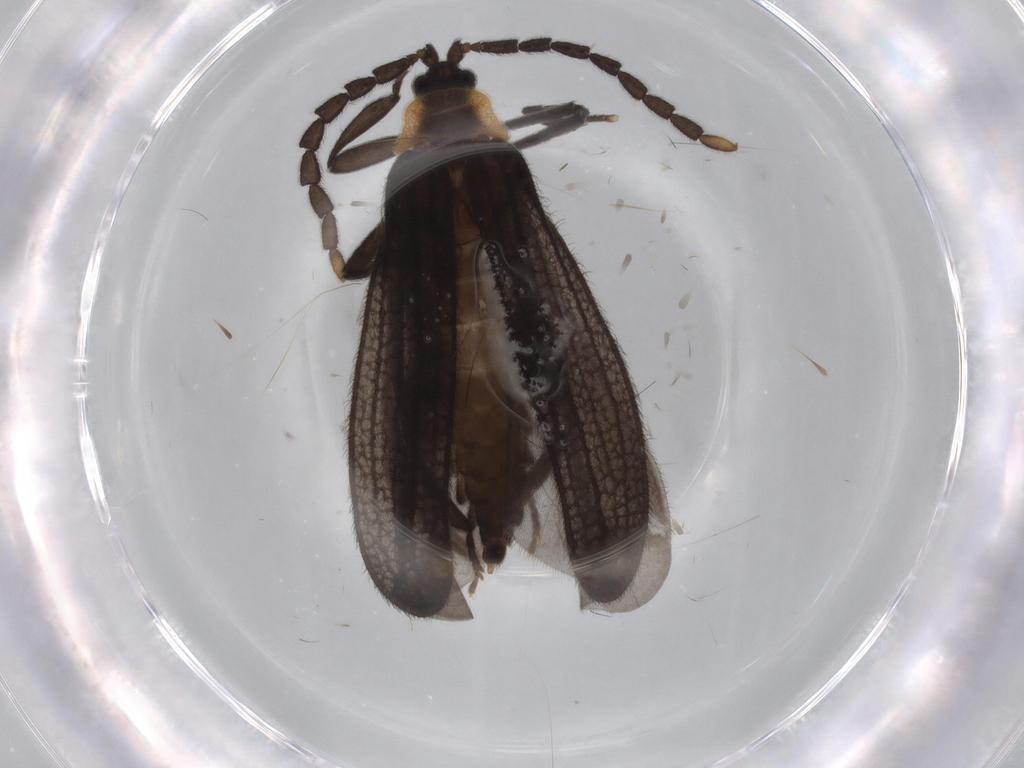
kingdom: Animalia
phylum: Arthropoda
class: Insecta
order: Coleoptera
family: Lycidae
